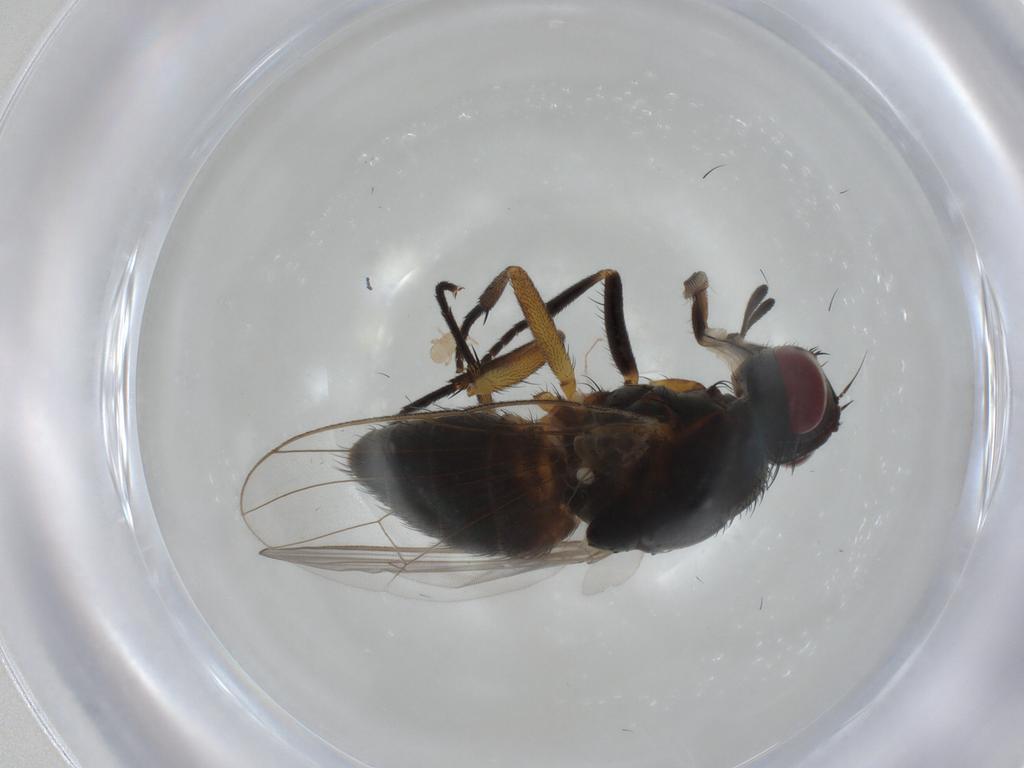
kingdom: Animalia
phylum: Arthropoda
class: Insecta
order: Diptera
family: Muscidae
